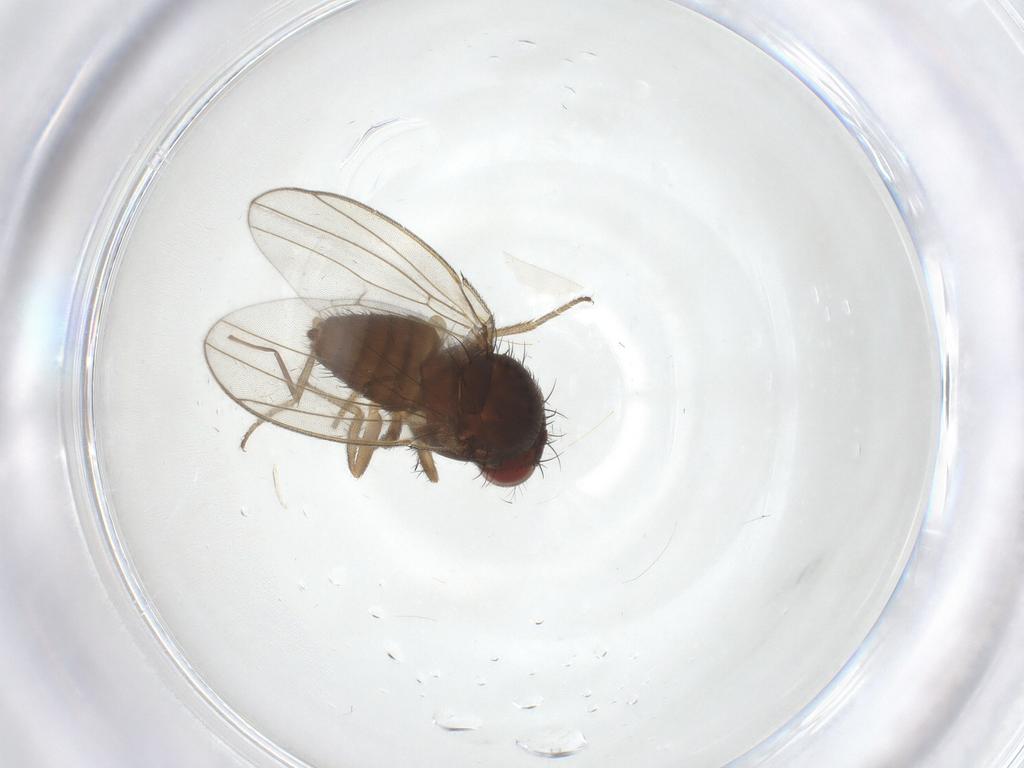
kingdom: Animalia
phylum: Arthropoda
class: Insecta
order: Diptera
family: Drosophilidae
